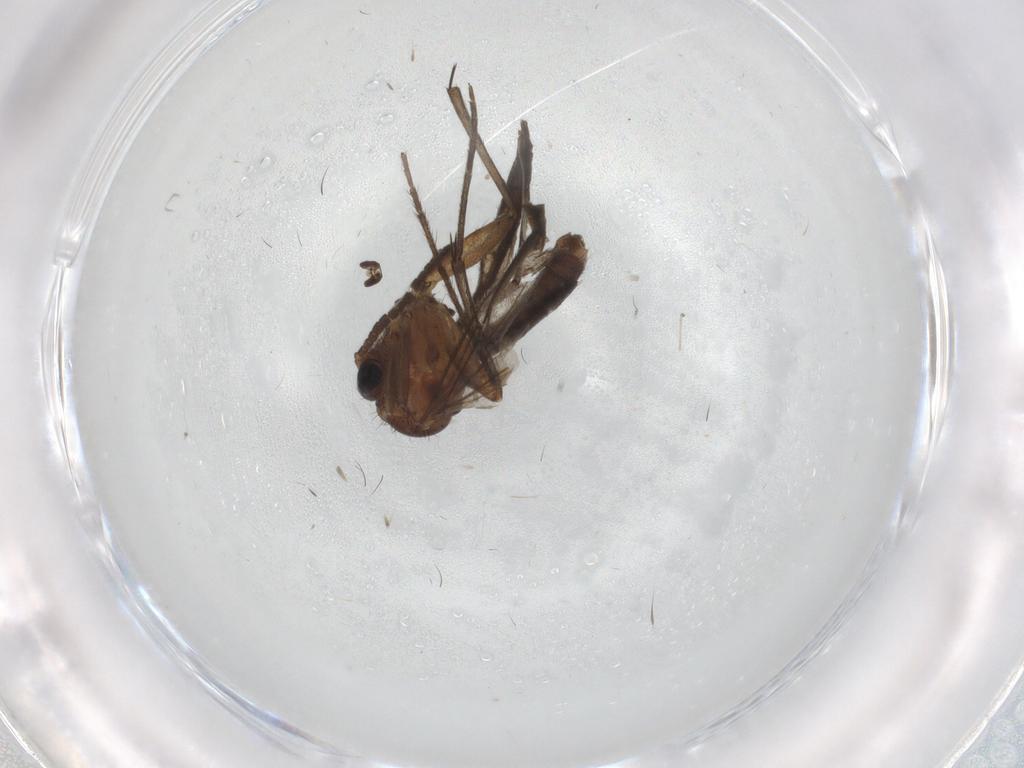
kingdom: Animalia
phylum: Arthropoda
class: Insecta
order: Diptera
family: Mycetophilidae
